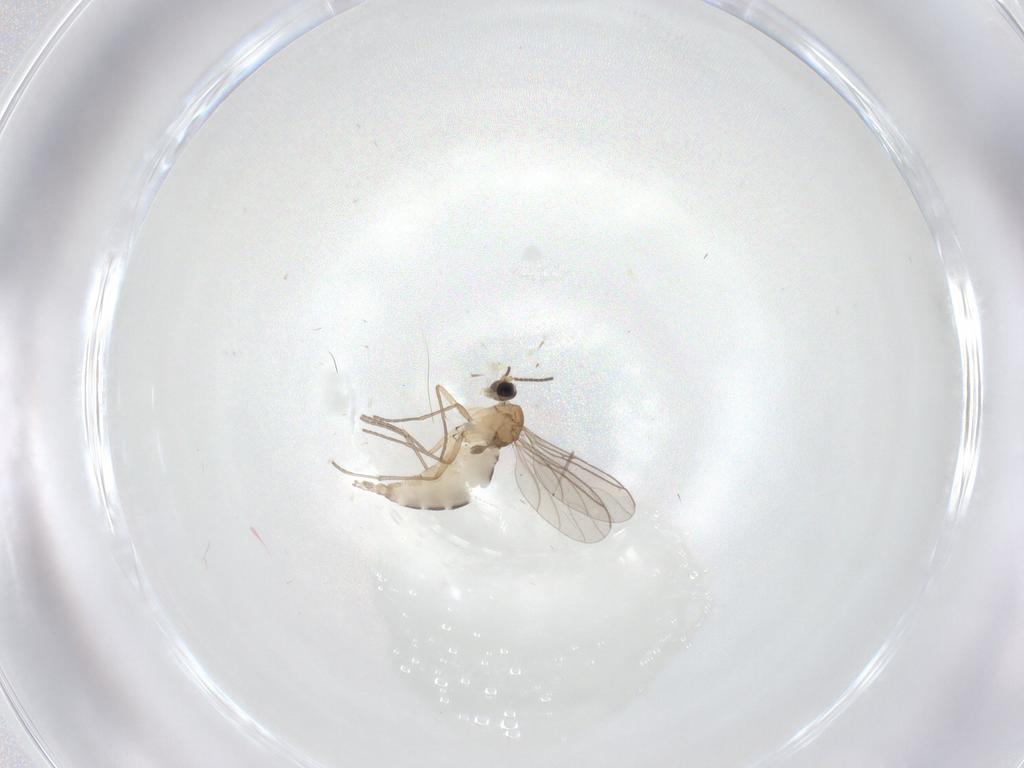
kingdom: Animalia
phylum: Arthropoda
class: Insecta
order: Diptera
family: Sciaridae
